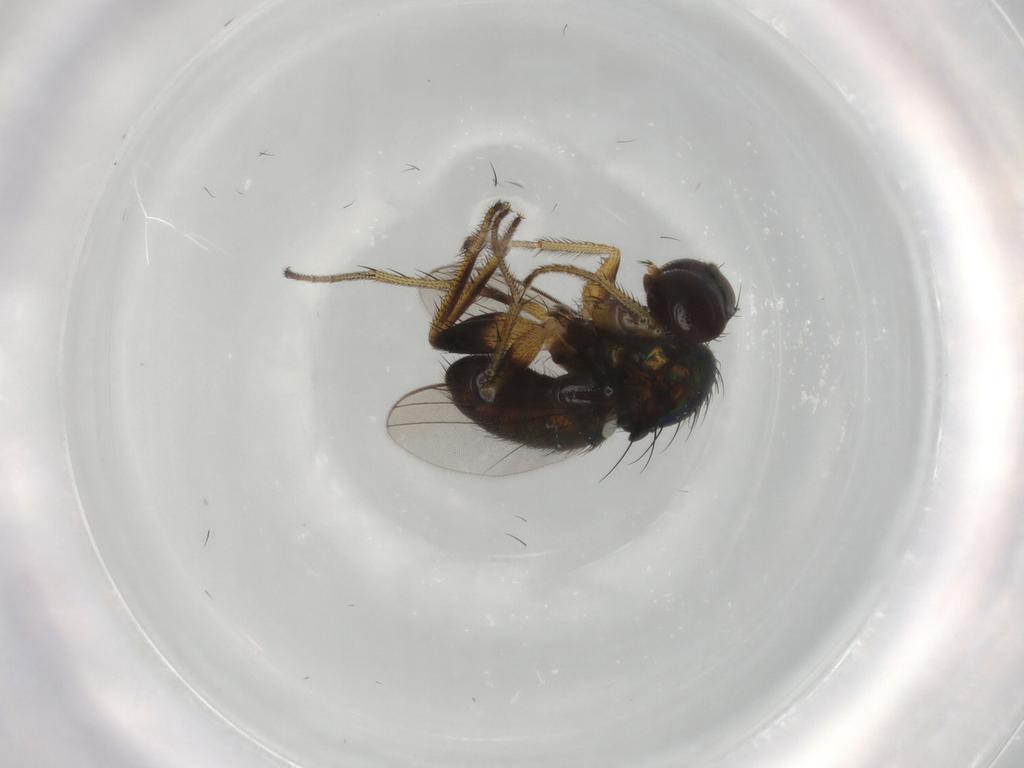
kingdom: Animalia
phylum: Arthropoda
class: Insecta
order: Diptera
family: Dolichopodidae
